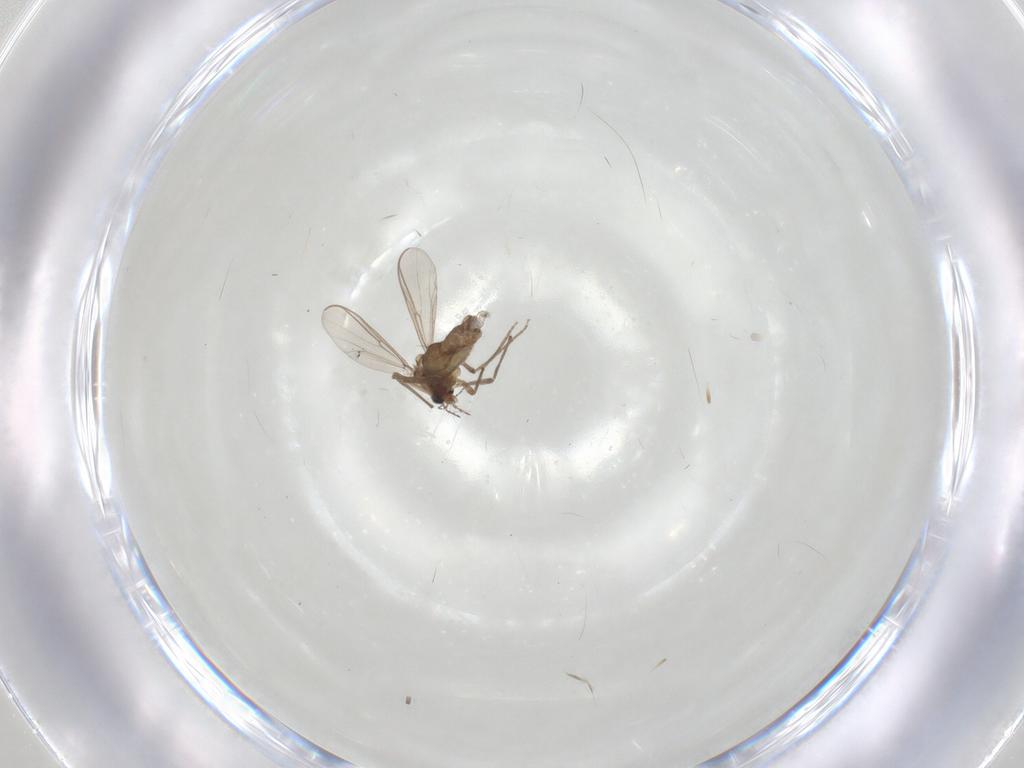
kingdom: Animalia
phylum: Arthropoda
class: Insecta
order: Diptera
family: Chironomidae
